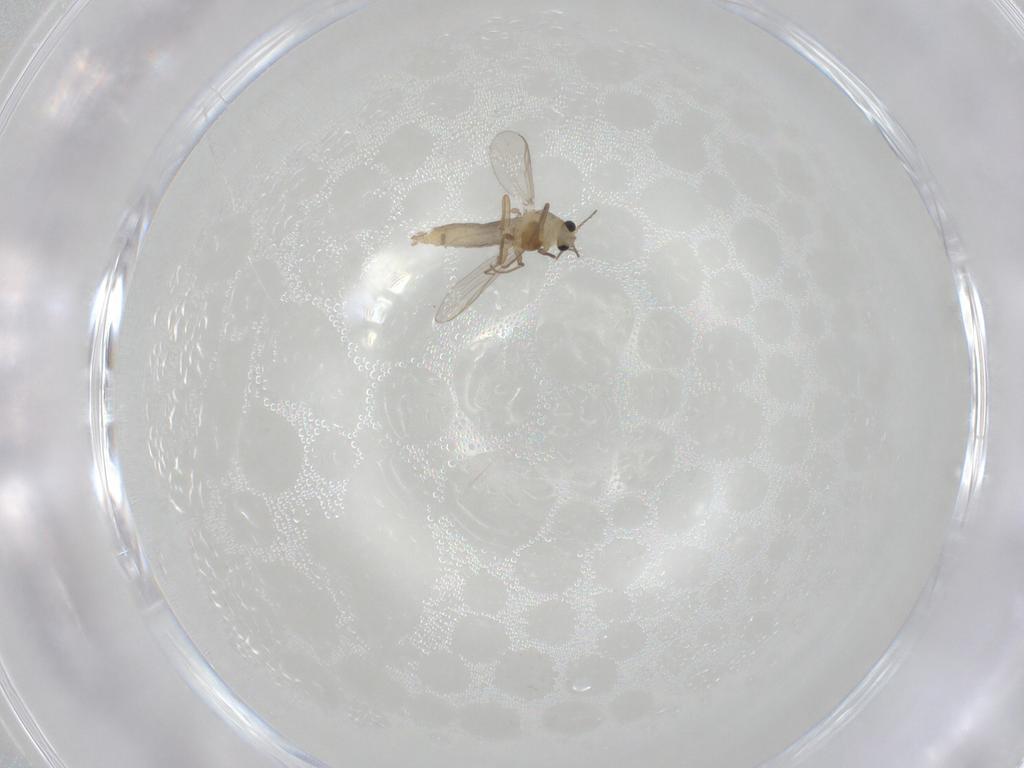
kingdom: Animalia
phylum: Arthropoda
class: Insecta
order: Diptera
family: Chironomidae
